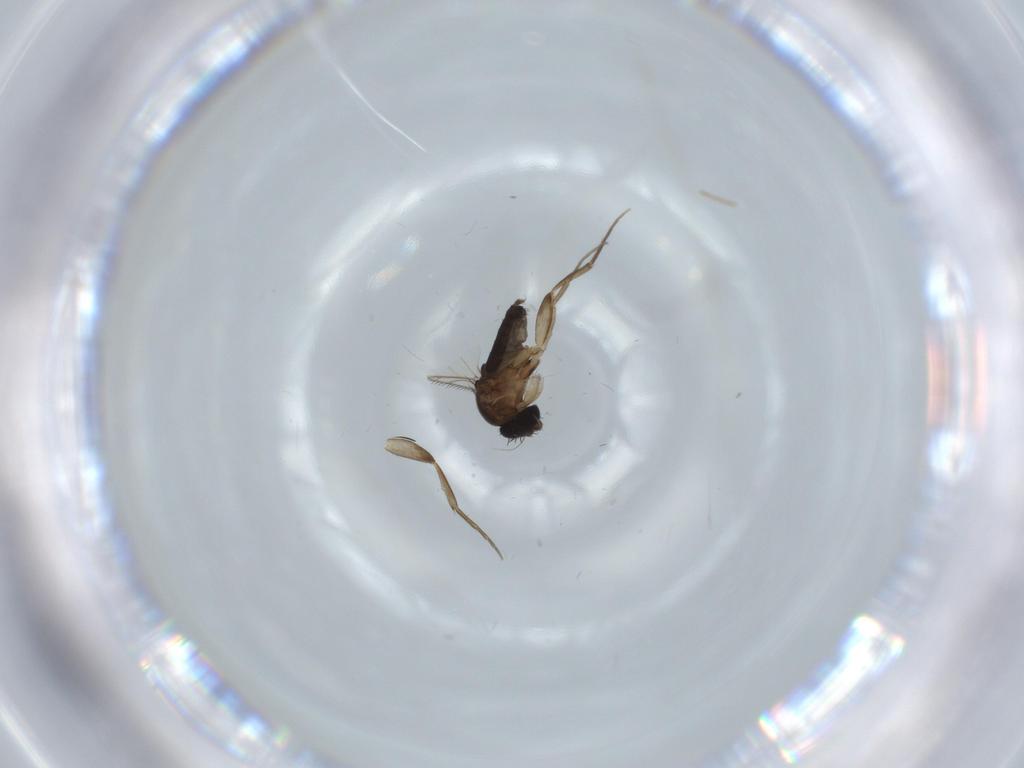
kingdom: Animalia
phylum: Arthropoda
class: Insecta
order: Diptera
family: Phoridae
